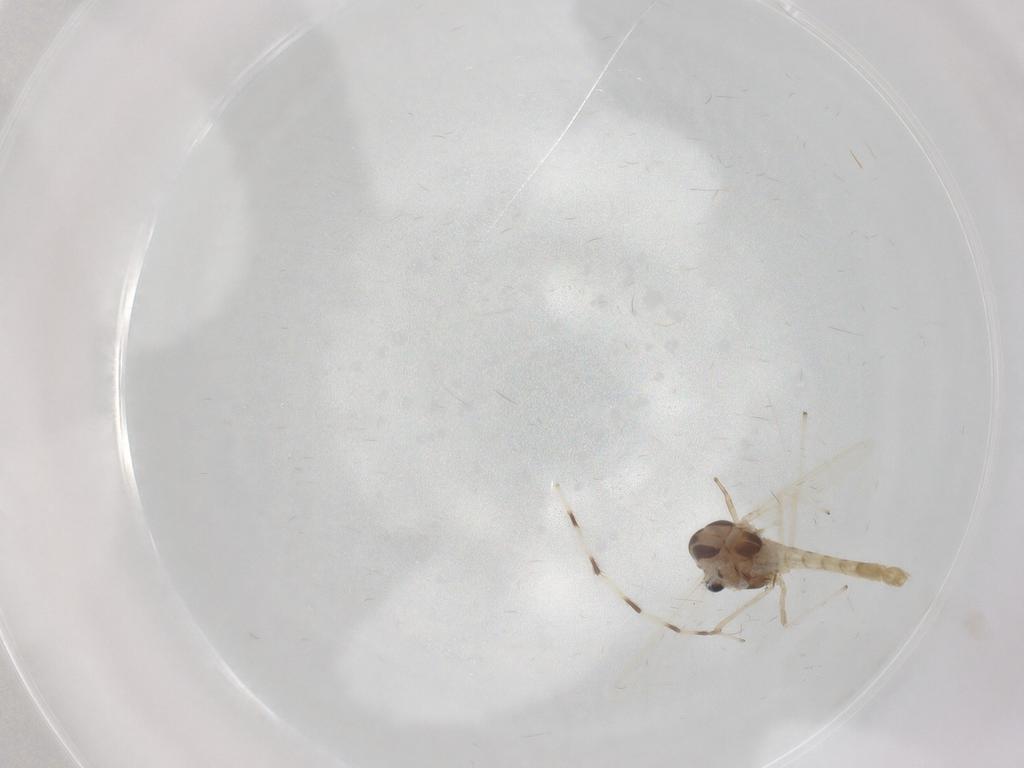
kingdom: Animalia
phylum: Arthropoda
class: Insecta
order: Diptera
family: Chironomidae
